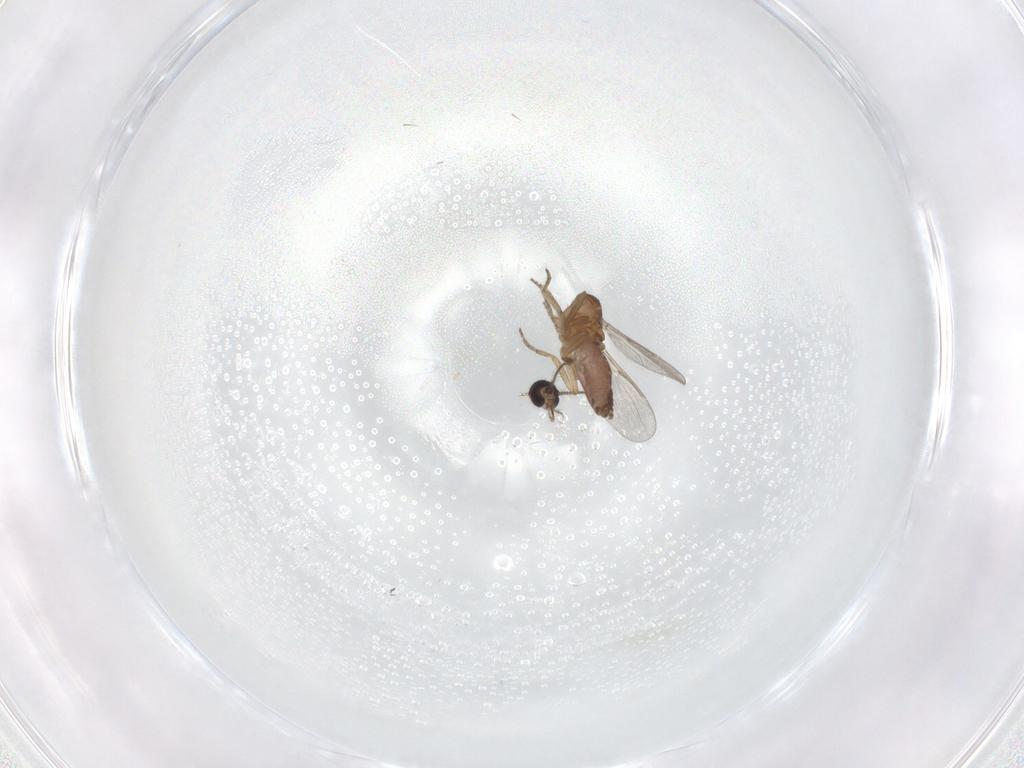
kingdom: Animalia
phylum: Arthropoda
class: Insecta
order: Diptera
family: Ceratopogonidae
